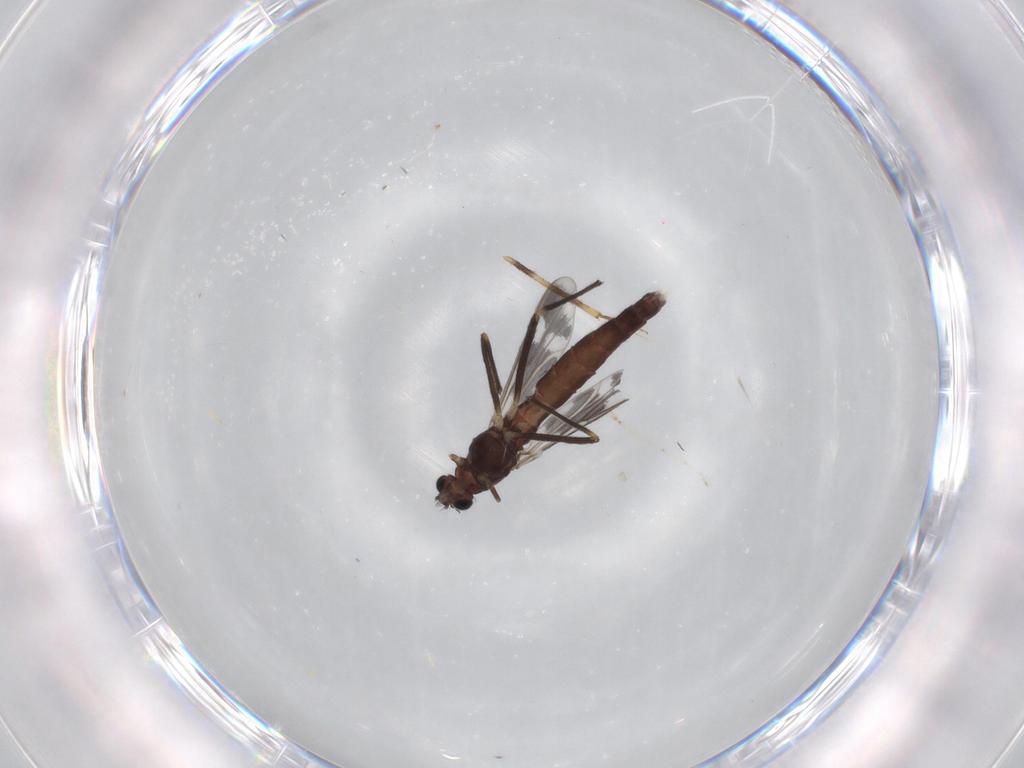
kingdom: Animalia
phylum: Arthropoda
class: Insecta
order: Diptera
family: Chironomidae
